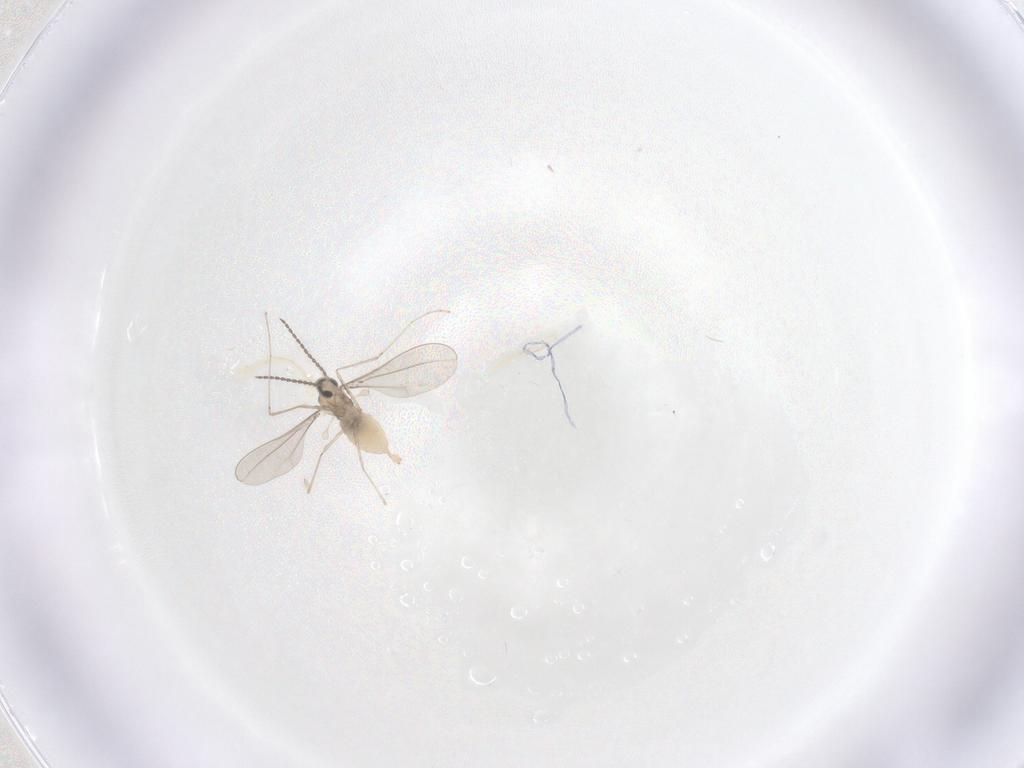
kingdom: Animalia
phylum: Arthropoda
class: Insecta
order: Diptera
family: Cecidomyiidae
